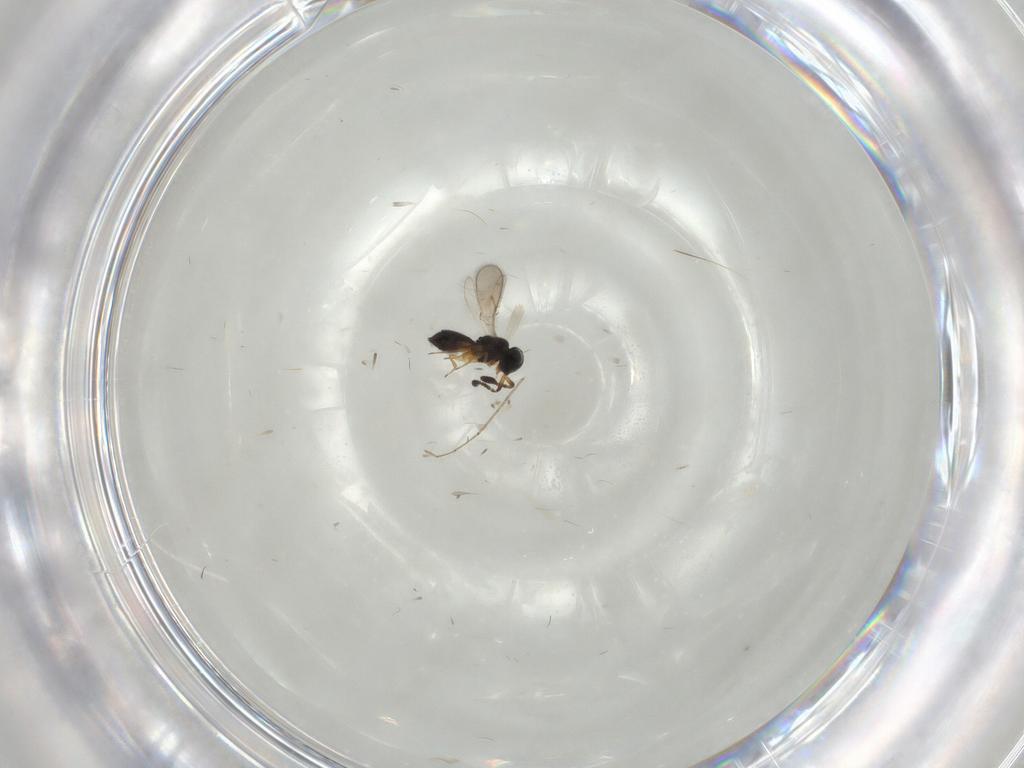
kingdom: Animalia
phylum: Arthropoda
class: Insecta
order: Hymenoptera
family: Scelionidae
